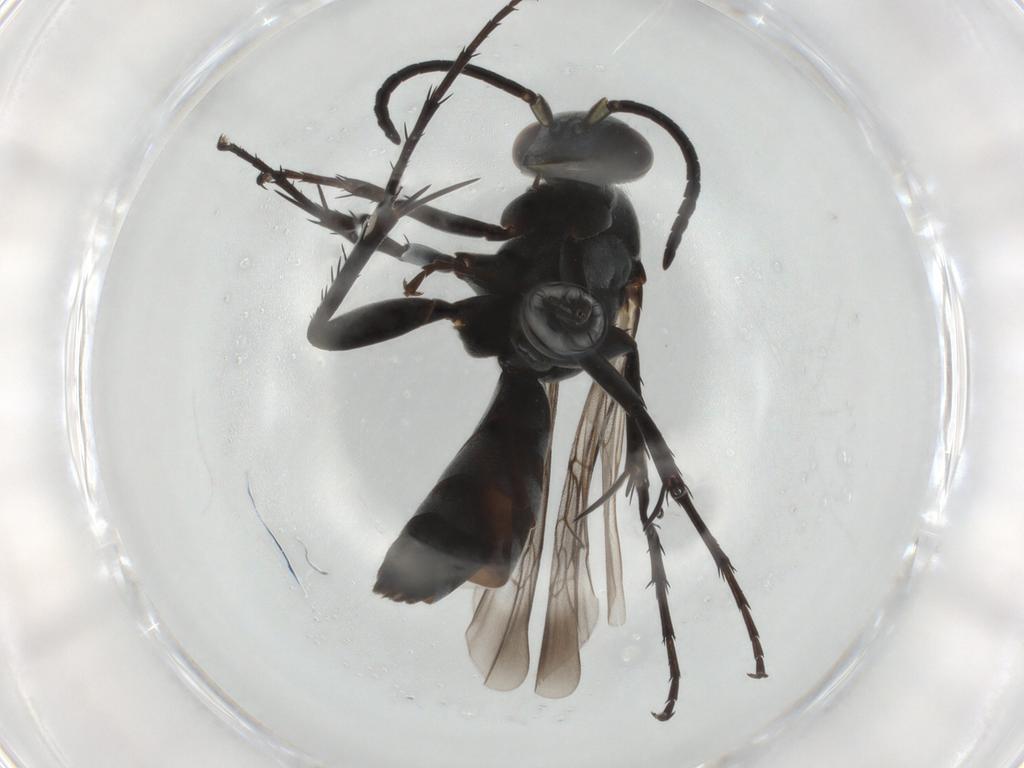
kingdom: Animalia
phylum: Arthropoda
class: Insecta
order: Hymenoptera
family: Pompilidae
